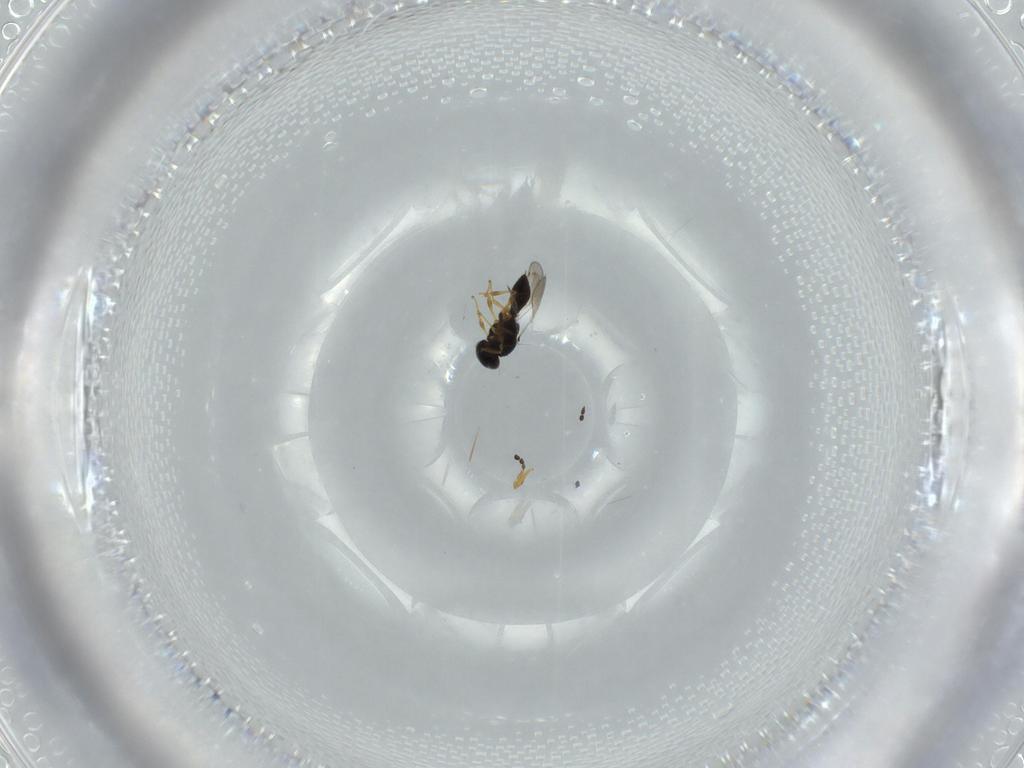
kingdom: Animalia
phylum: Arthropoda
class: Insecta
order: Hymenoptera
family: Platygastridae
